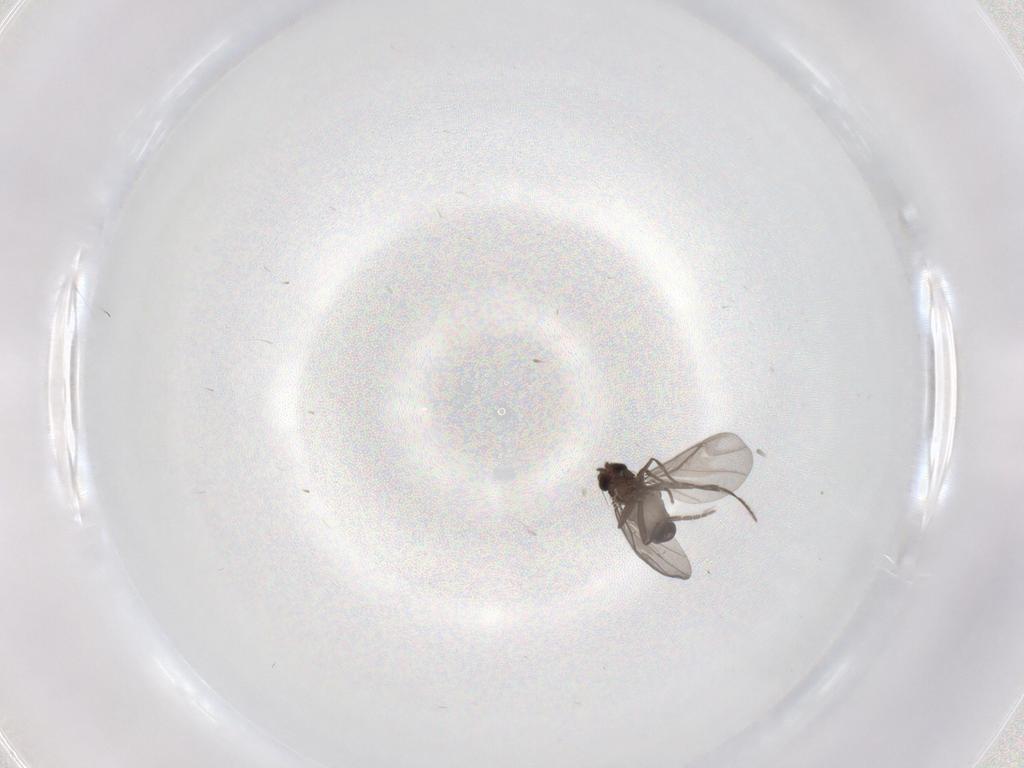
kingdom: Animalia
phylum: Arthropoda
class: Insecta
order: Diptera
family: Phoridae
